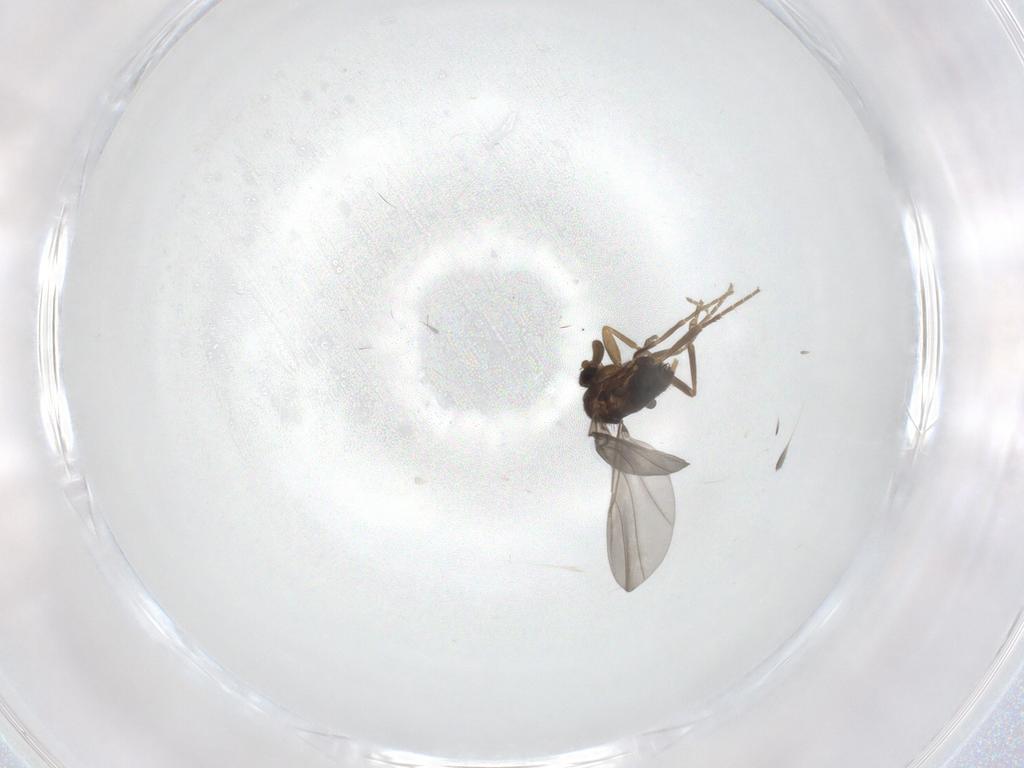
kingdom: Animalia
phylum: Arthropoda
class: Insecta
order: Diptera
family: Phoridae
